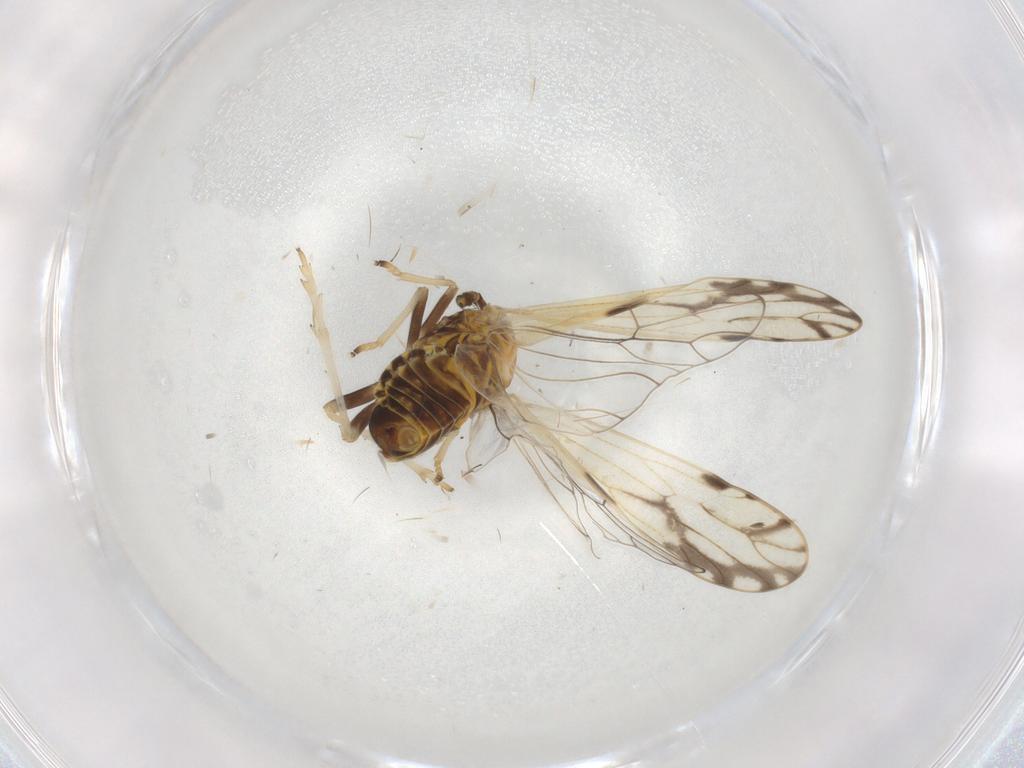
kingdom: Animalia
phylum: Arthropoda
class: Insecta
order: Hemiptera
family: Delphacidae
